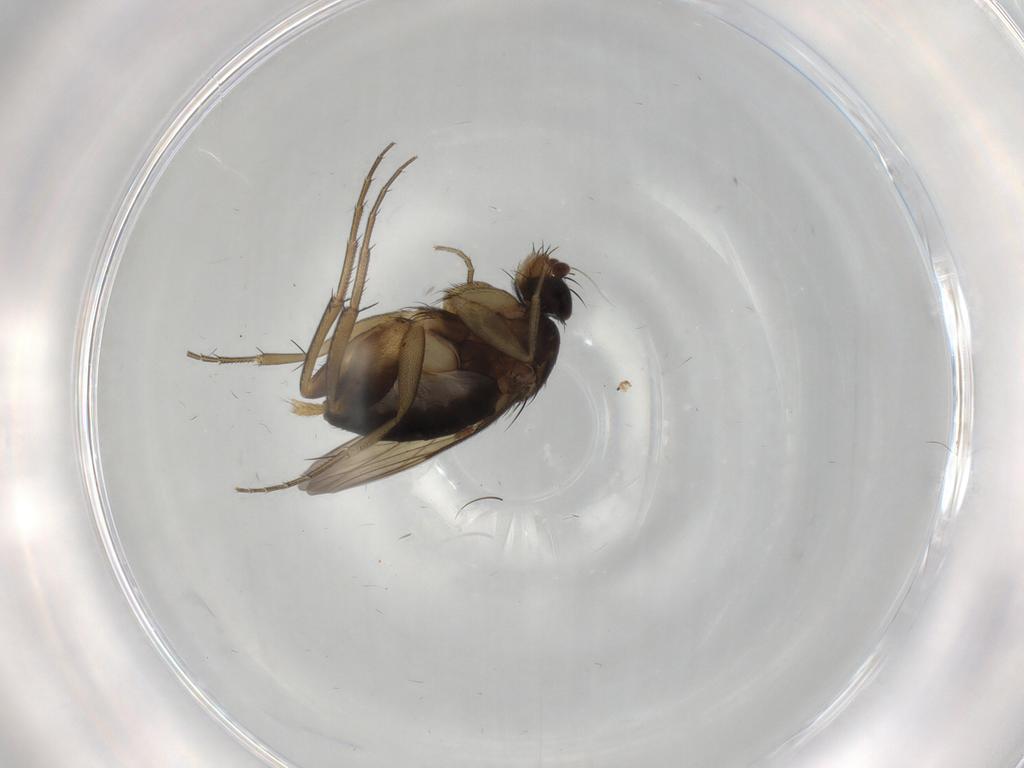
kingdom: Animalia
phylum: Arthropoda
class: Insecta
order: Diptera
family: Phoridae
